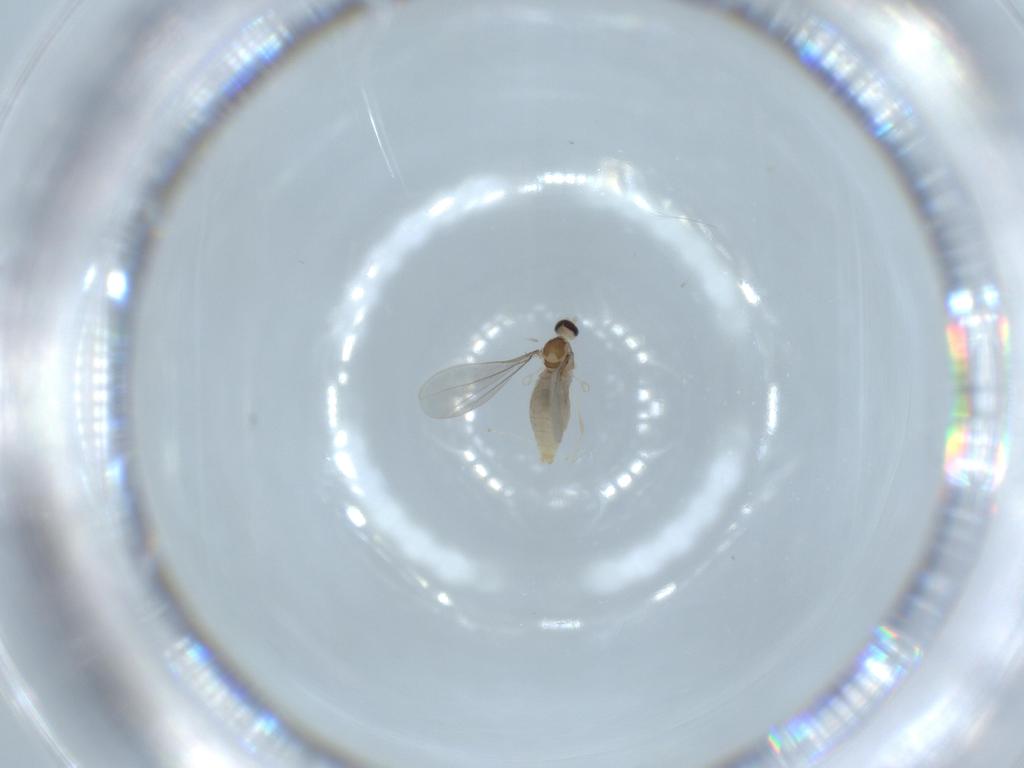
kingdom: Animalia
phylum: Arthropoda
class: Insecta
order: Diptera
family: Cecidomyiidae
